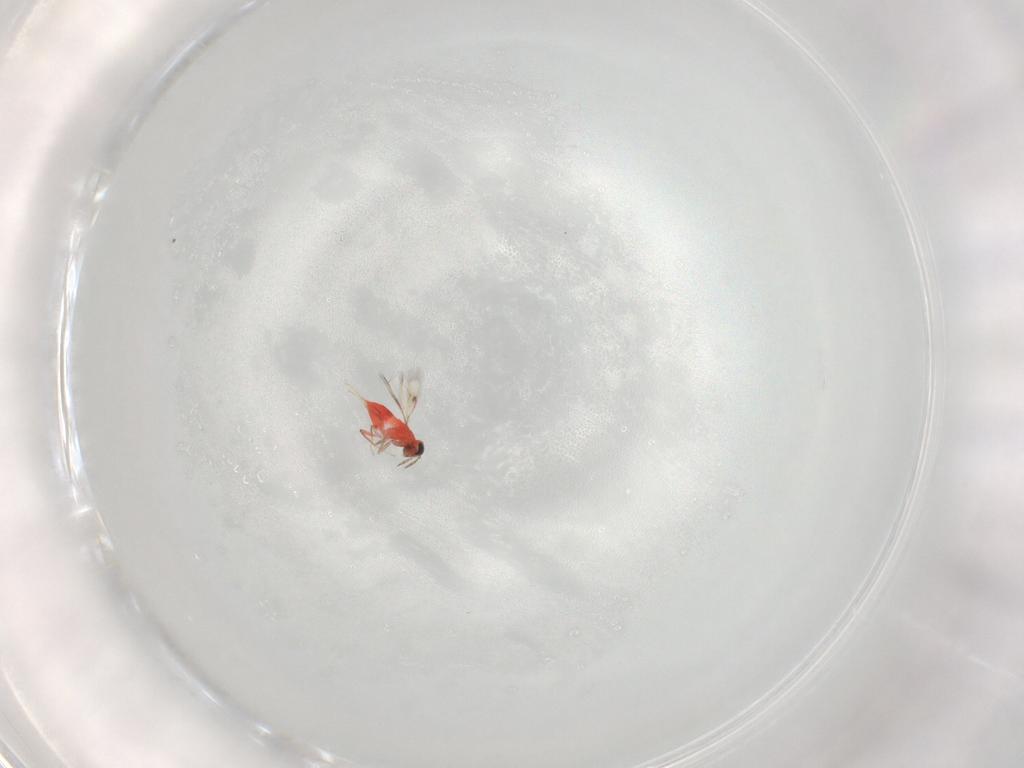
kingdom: Animalia
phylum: Arthropoda
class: Insecta
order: Hymenoptera
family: Trichogrammatidae
